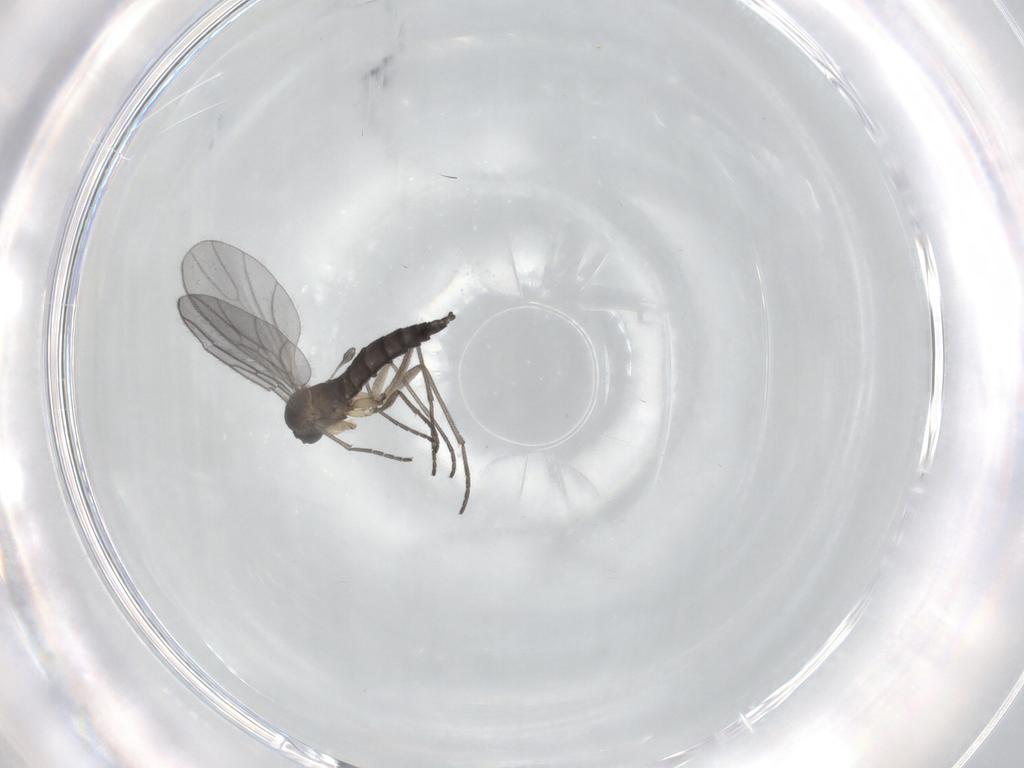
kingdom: Animalia
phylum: Arthropoda
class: Insecta
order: Diptera
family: Sciaridae
